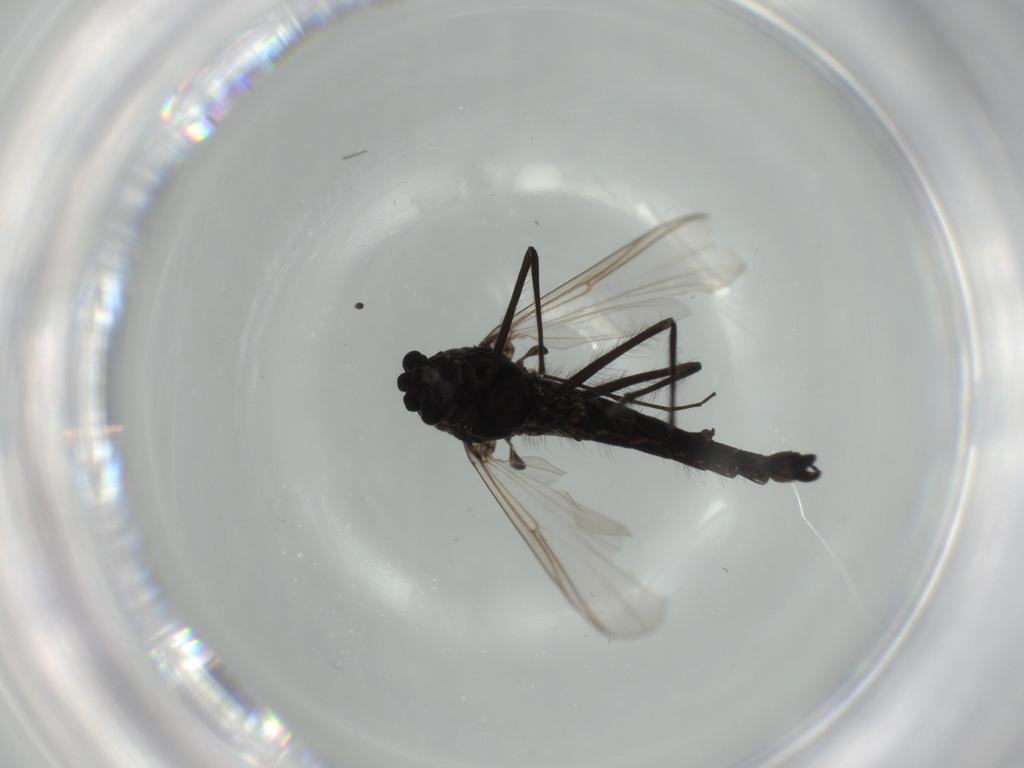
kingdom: Animalia
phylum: Arthropoda
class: Insecta
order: Diptera
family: Hybotidae
